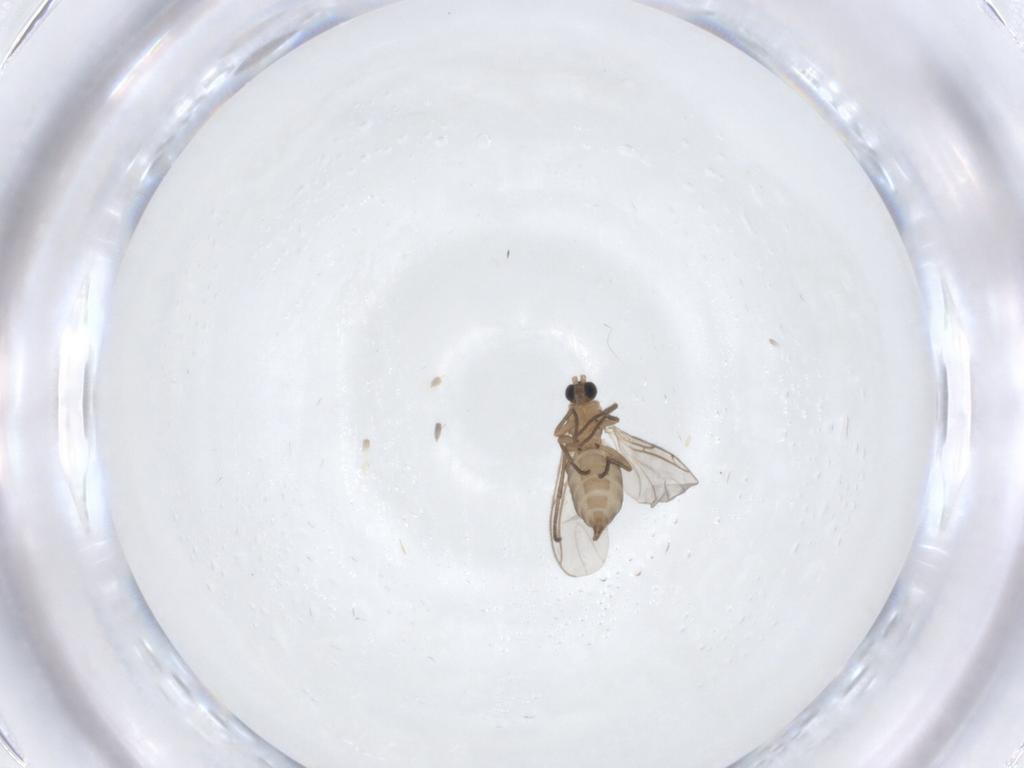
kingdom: Animalia
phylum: Arthropoda
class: Insecta
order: Diptera
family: Sciaridae
